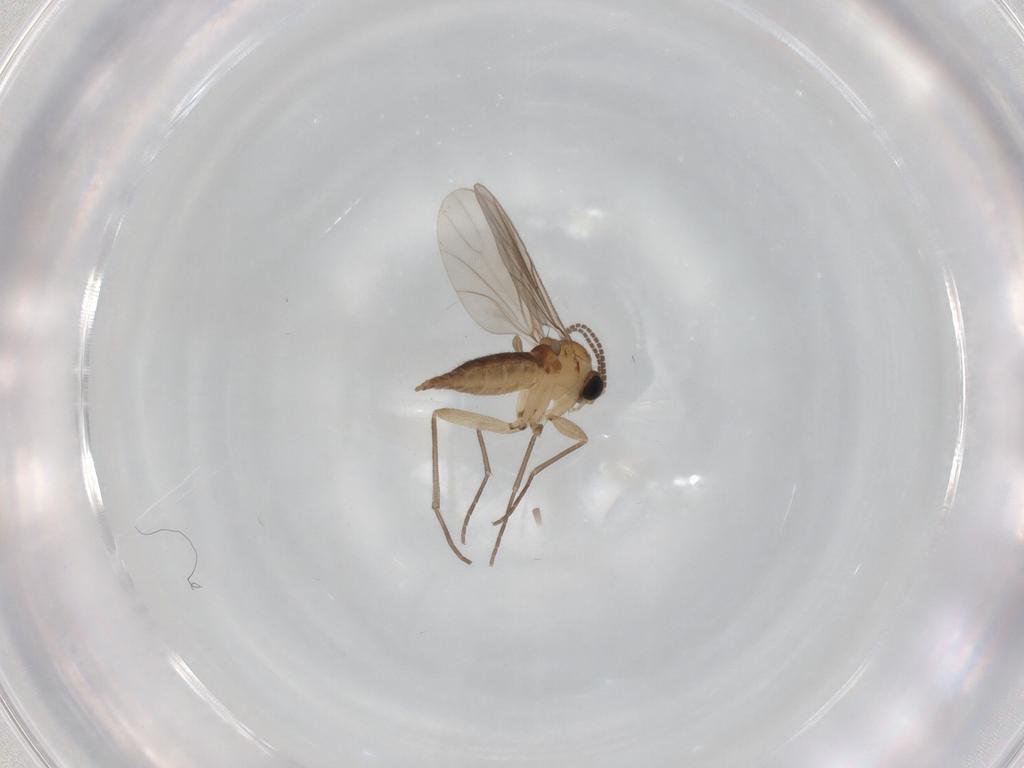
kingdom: Animalia
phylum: Arthropoda
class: Insecta
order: Diptera
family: Sciaridae
